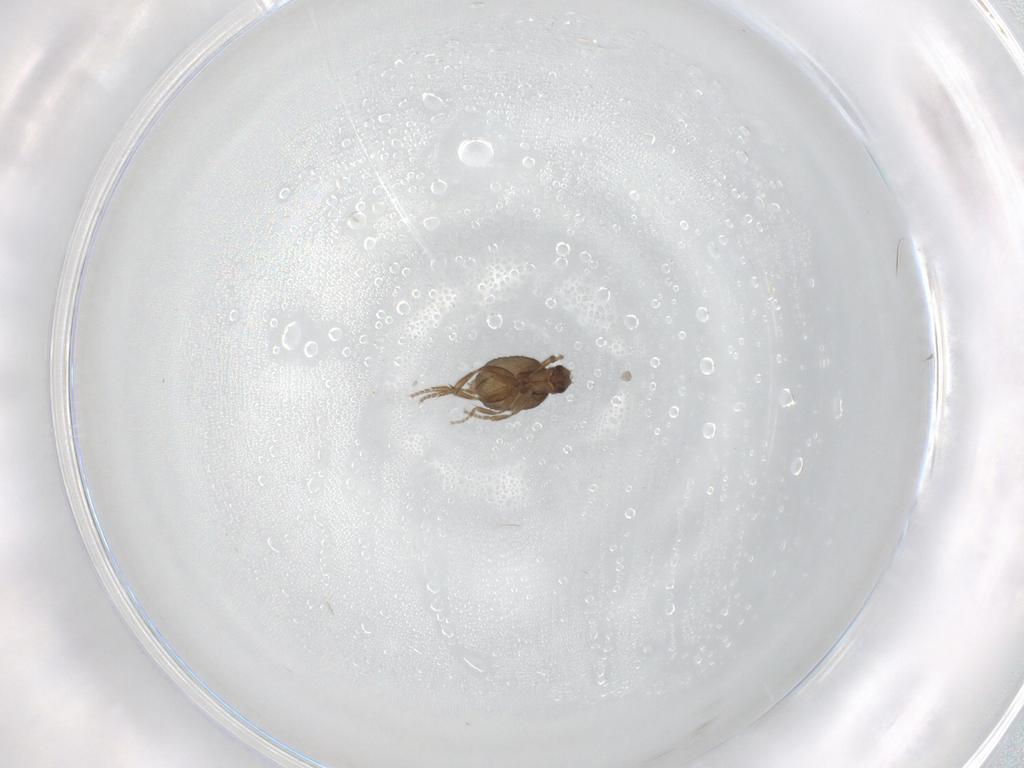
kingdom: Animalia
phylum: Arthropoda
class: Insecta
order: Diptera
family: Phoridae
